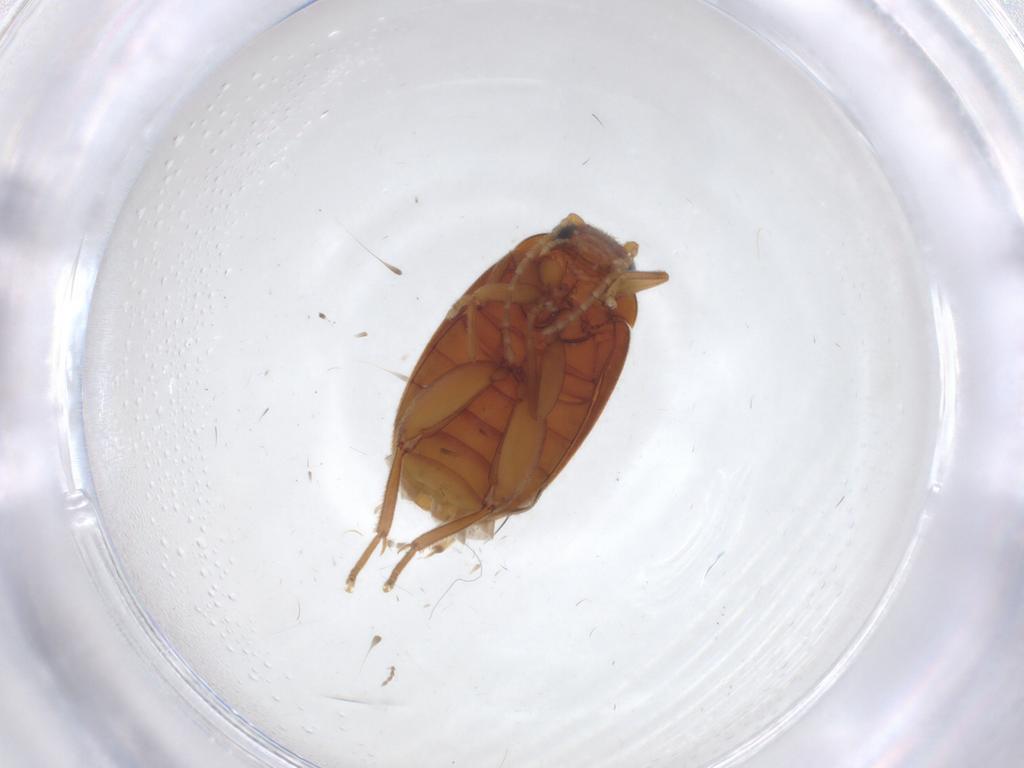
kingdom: Animalia
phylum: Arthropoda
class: Insecta
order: Coleoptera
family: Scirtidae
